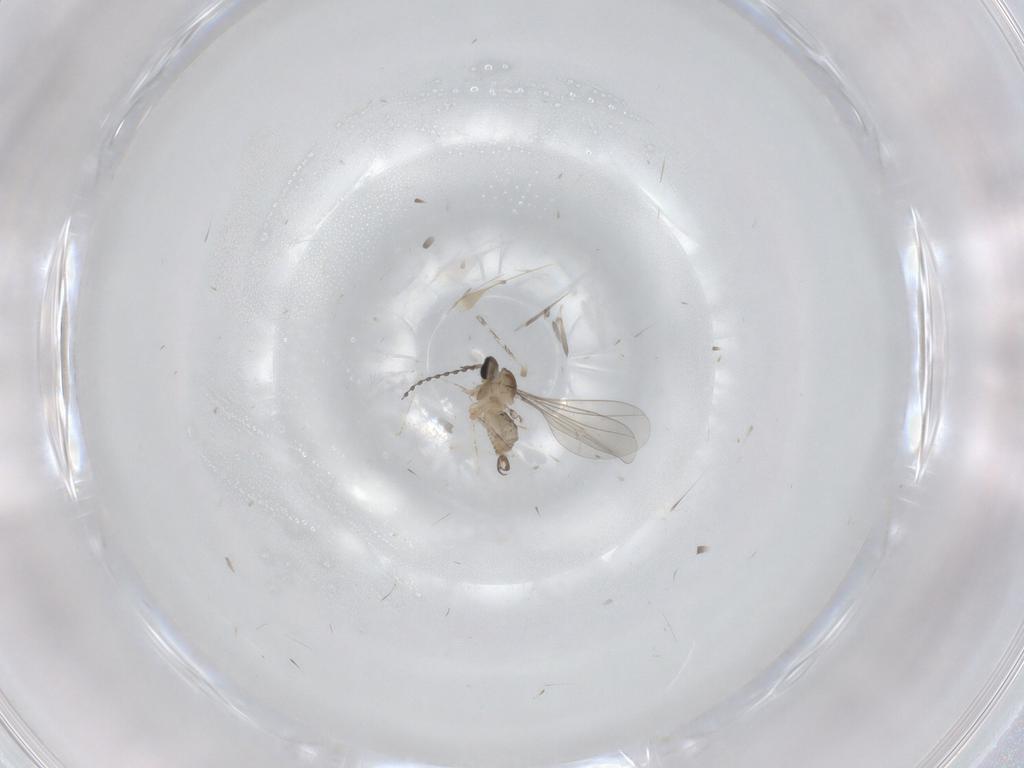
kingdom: Animalia
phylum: Arthropoda
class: Insecta
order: Diptera
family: Cecidomyiidae
